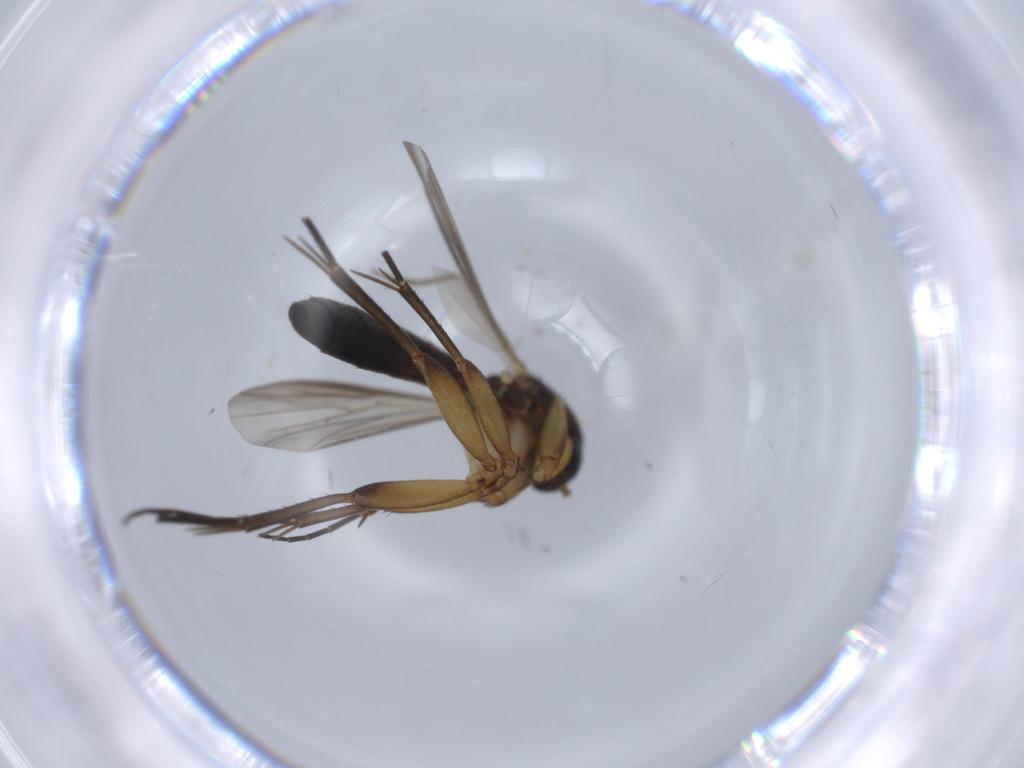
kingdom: Animalia
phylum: Arthropoda
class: Insecta
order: Diptera
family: Mycetophilidae
